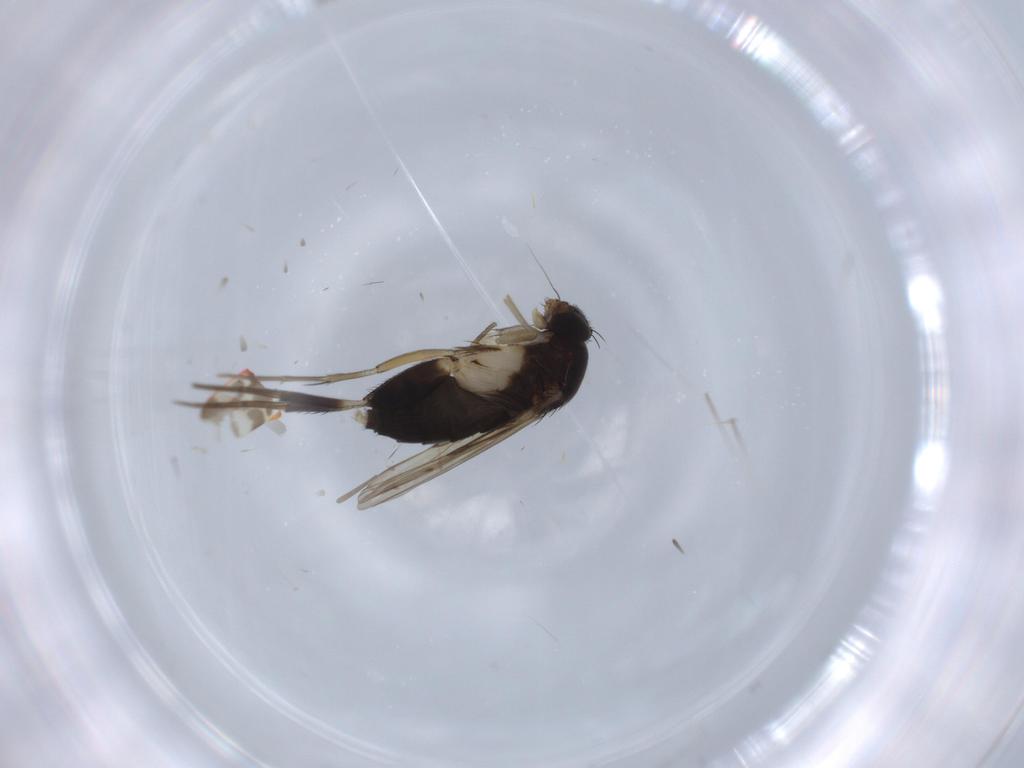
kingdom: Animalia
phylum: Arthropoda
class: Insecta
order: Diptera
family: Phoridae
